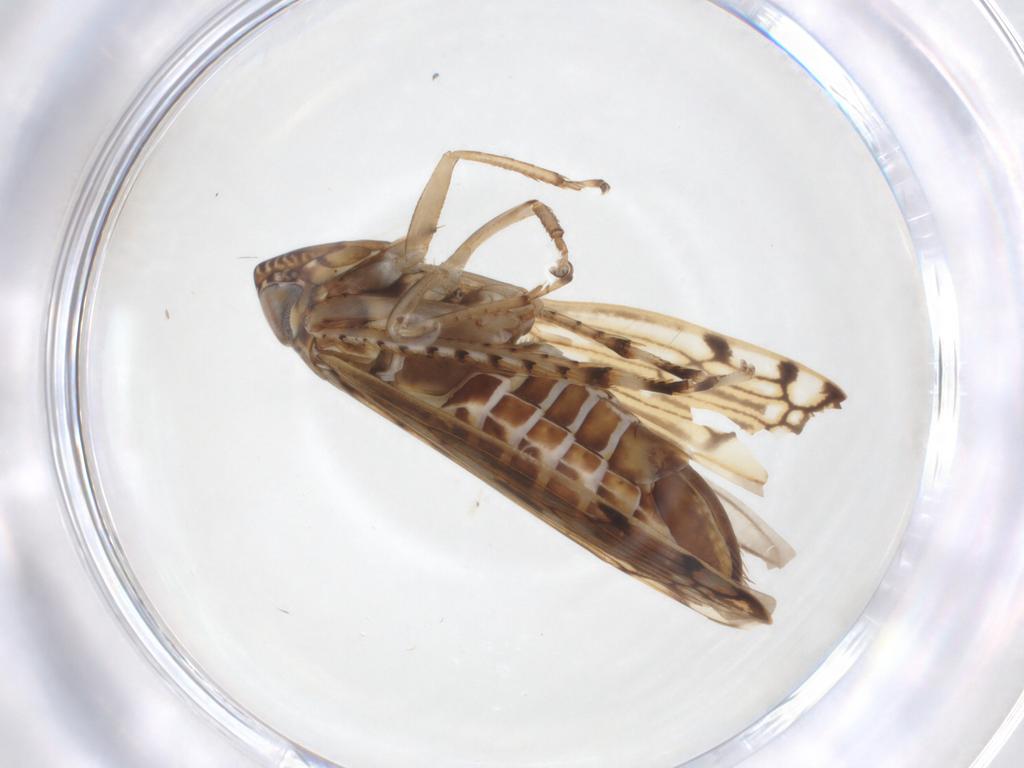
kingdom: Animalia
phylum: Arthropoda
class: Insecta
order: Hemiptera
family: Cicadellidae
